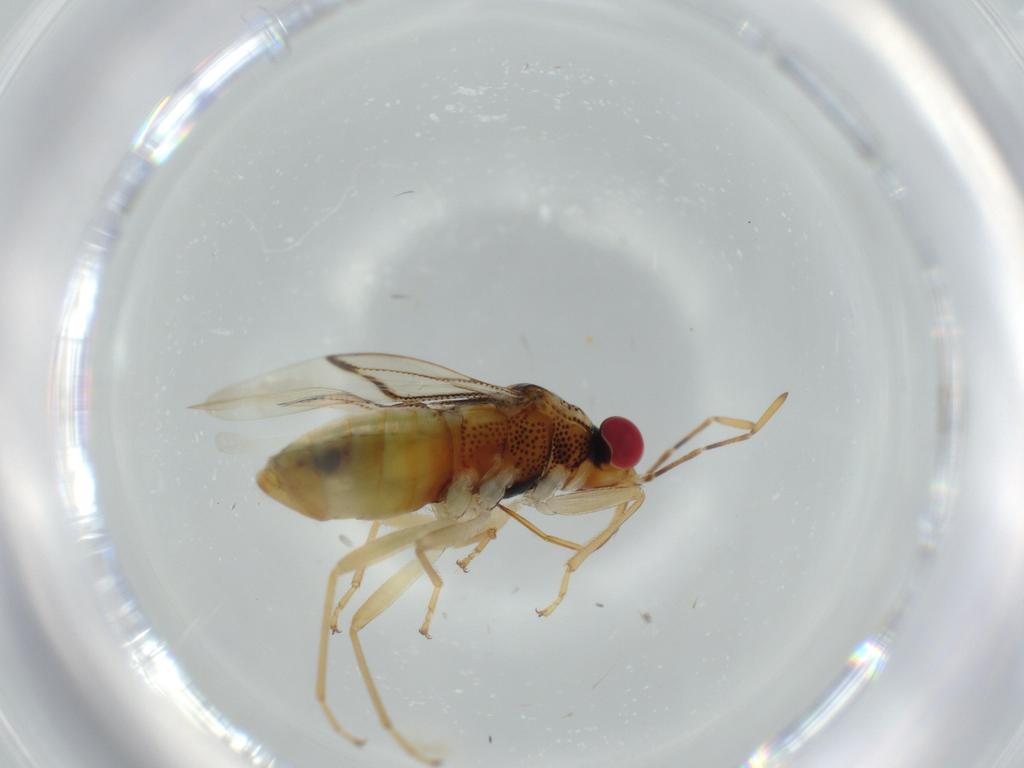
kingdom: Animalia
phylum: Arthropoda
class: Insecta
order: Hemiptera
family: Geocoridae
